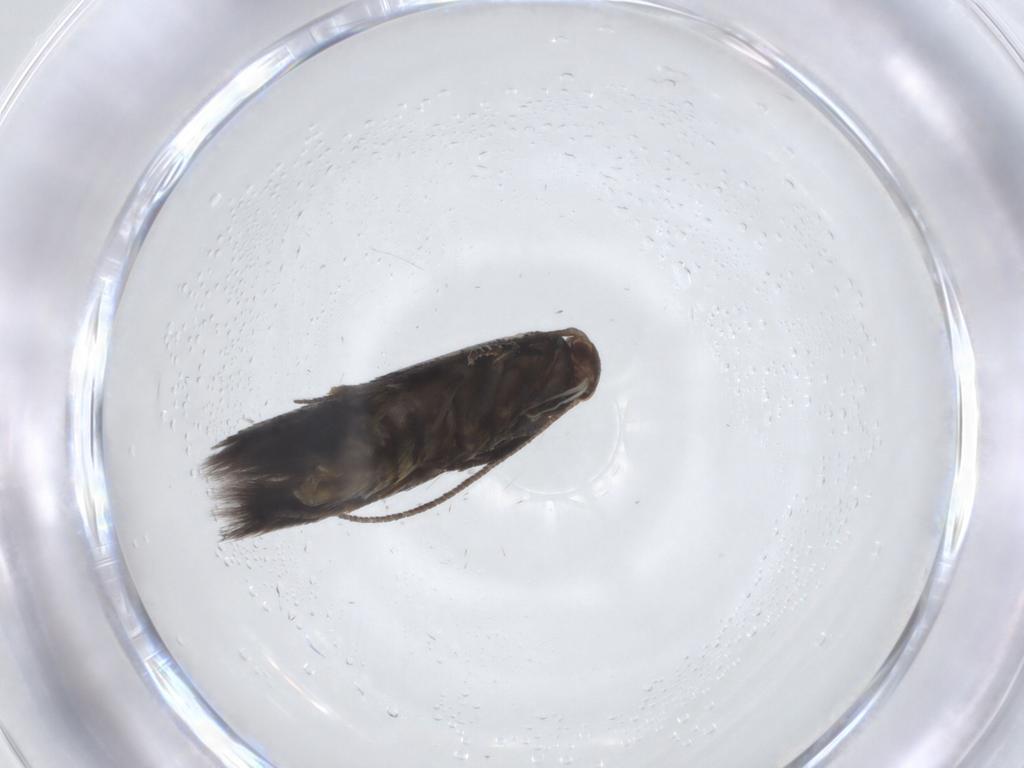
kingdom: Animalia
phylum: Arthropoda
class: Insecta
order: Lepidoptera
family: Elachistidae
